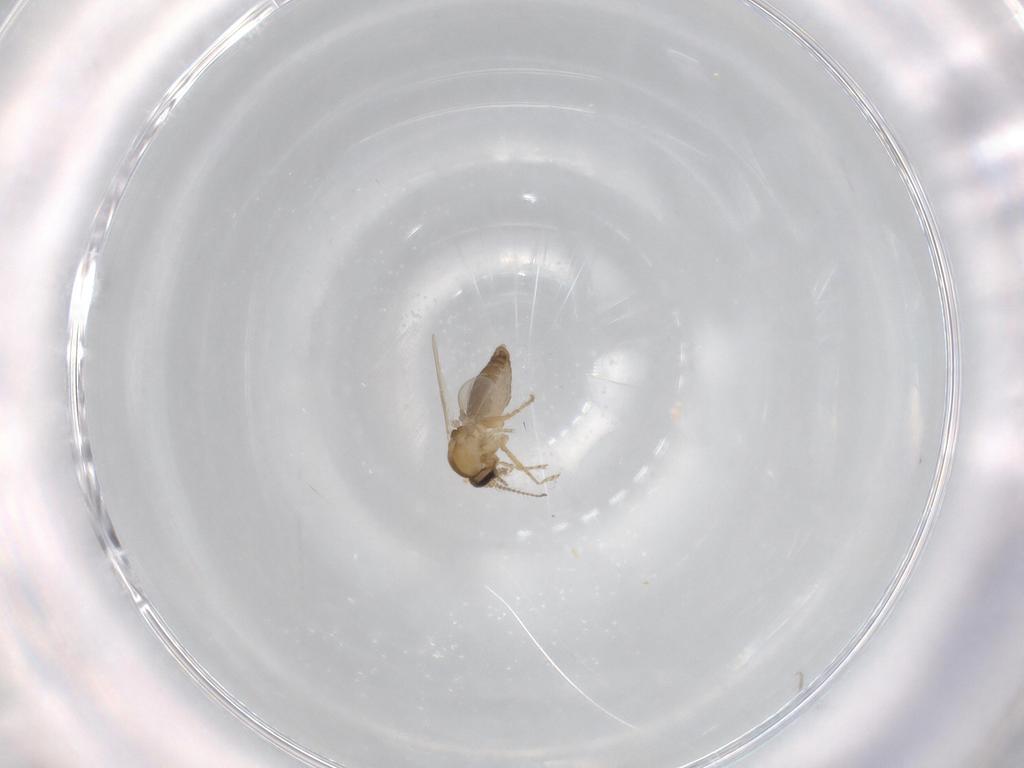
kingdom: Animalia
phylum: Arthropoda
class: Insecta
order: Diptera
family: Ceratopogonidae
